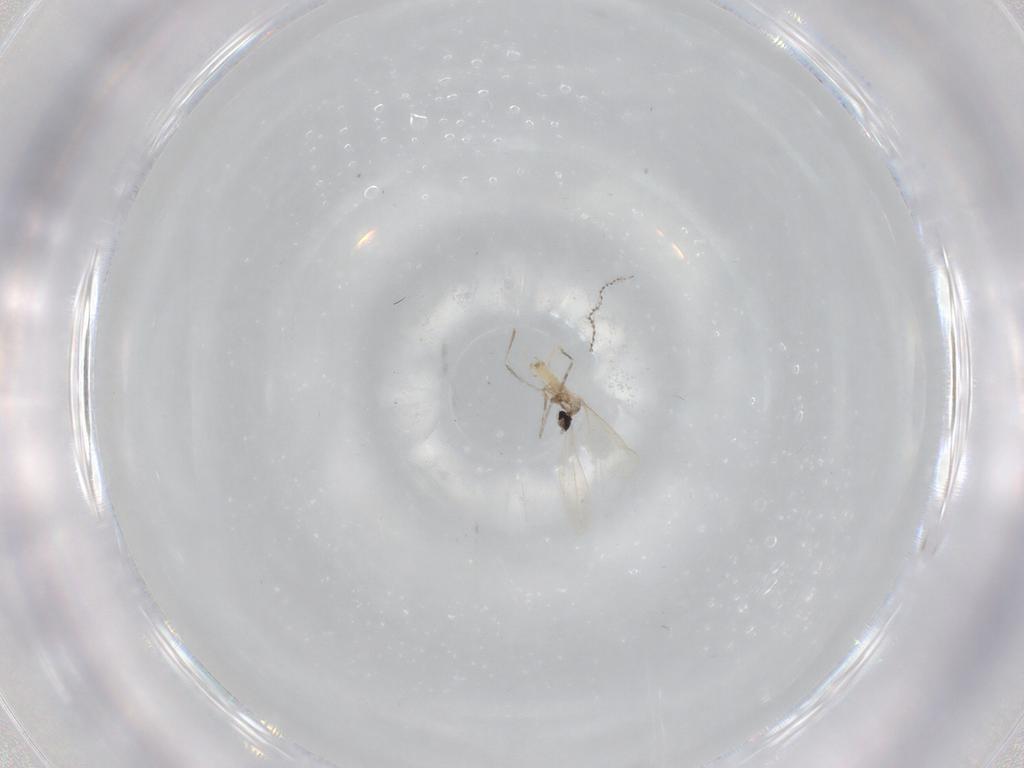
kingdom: Animalia
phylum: Arthropoda
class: Insecta
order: Diptera
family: Cecidomyiidae
